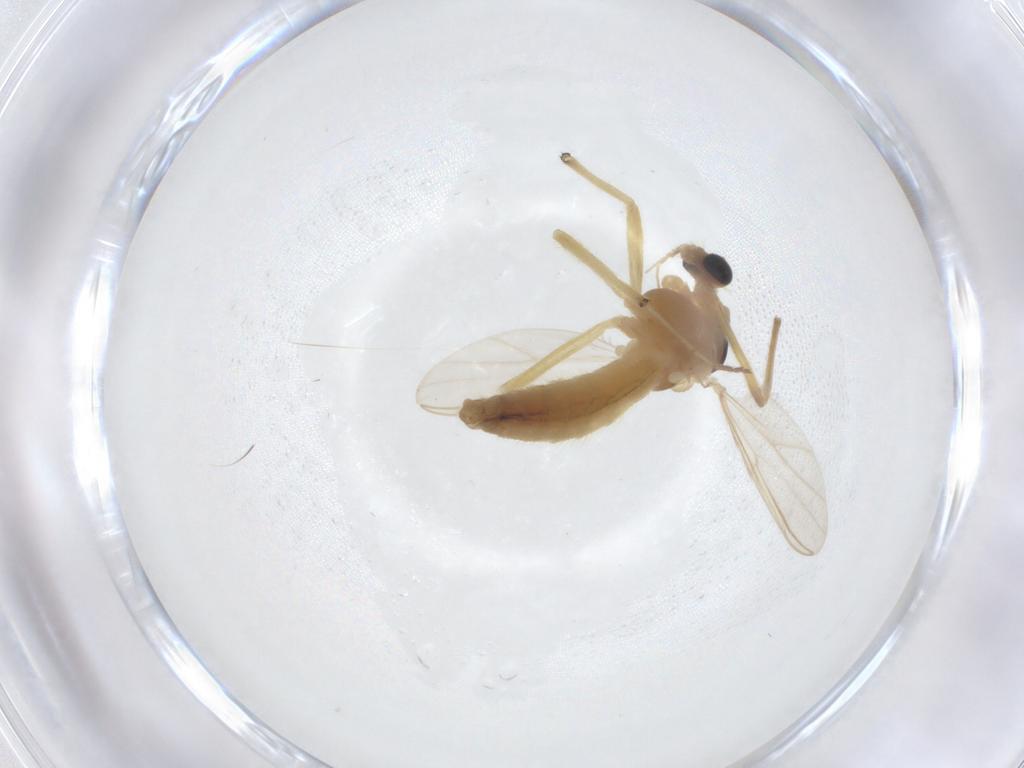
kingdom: Animalia
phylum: Arthropoda
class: Insecta
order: Diptera
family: Chironomidae
